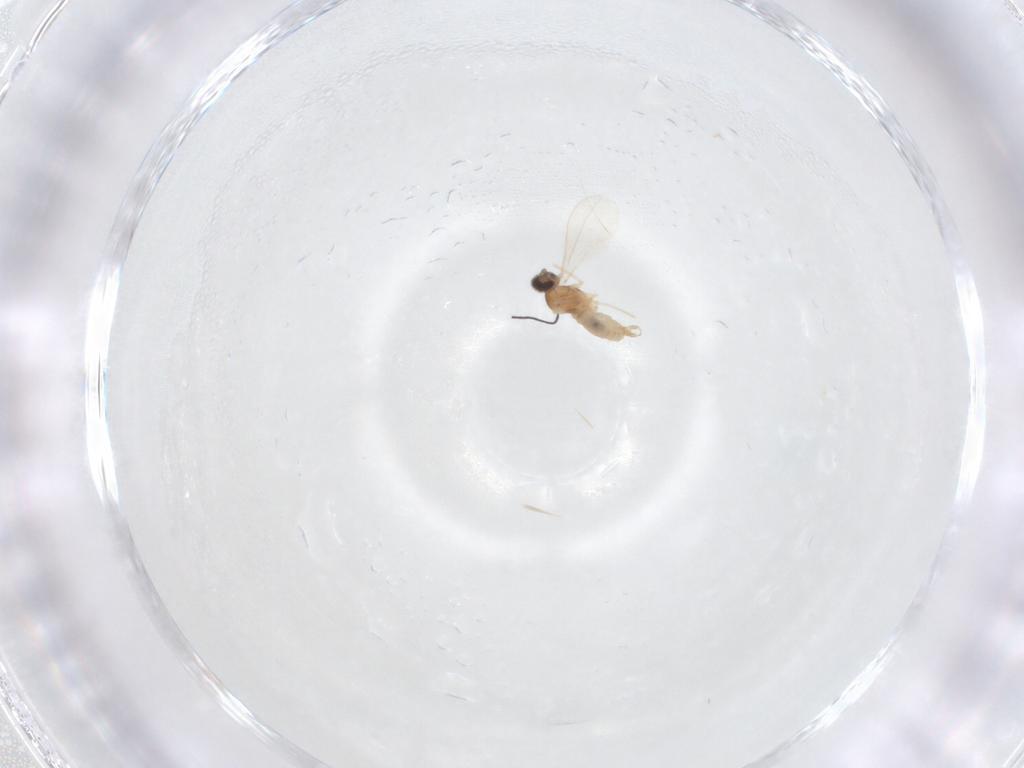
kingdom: Animalia
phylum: Arthropoda
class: Insecta
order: Diptera
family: Cecidomyiidae
